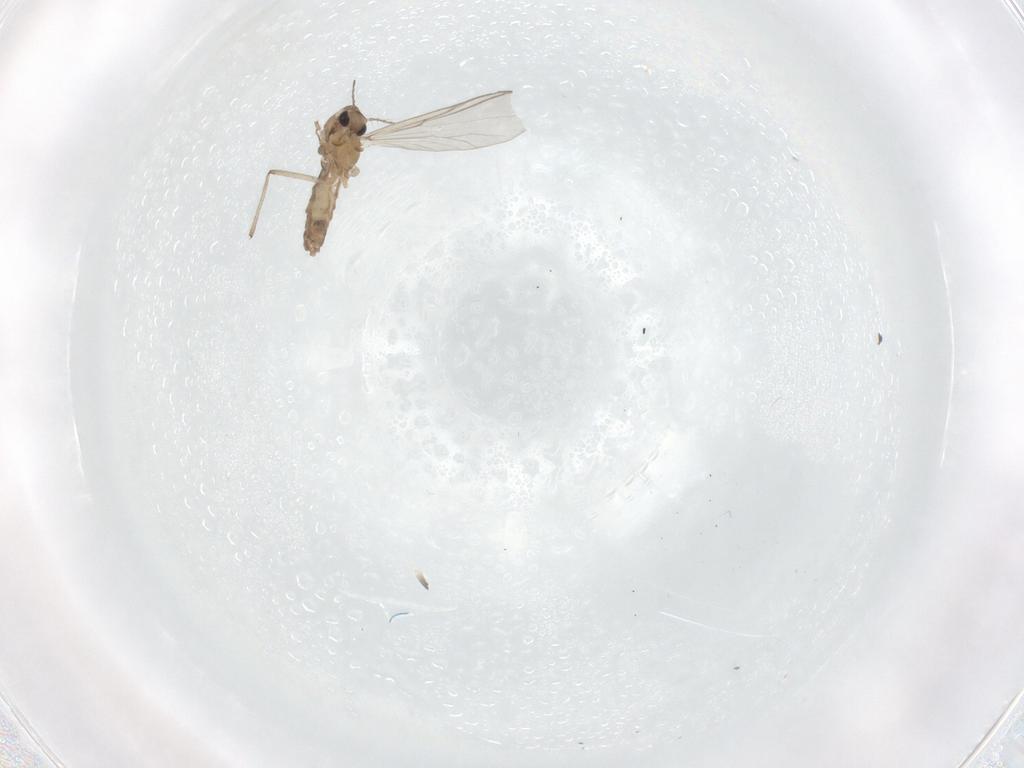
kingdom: Animalia
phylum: Arthropoda
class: Insecta
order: Diptera
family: Chironomidae
